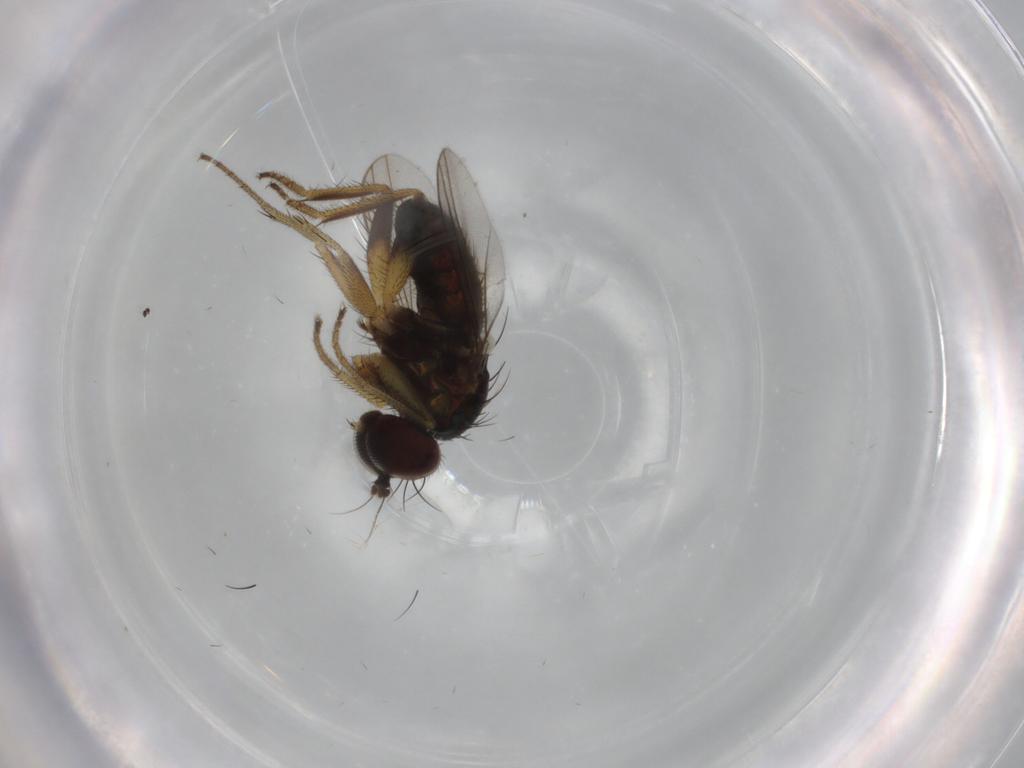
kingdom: Animalia
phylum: Arthropoda
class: Insecta
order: Diptera
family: Dolichopodidae
